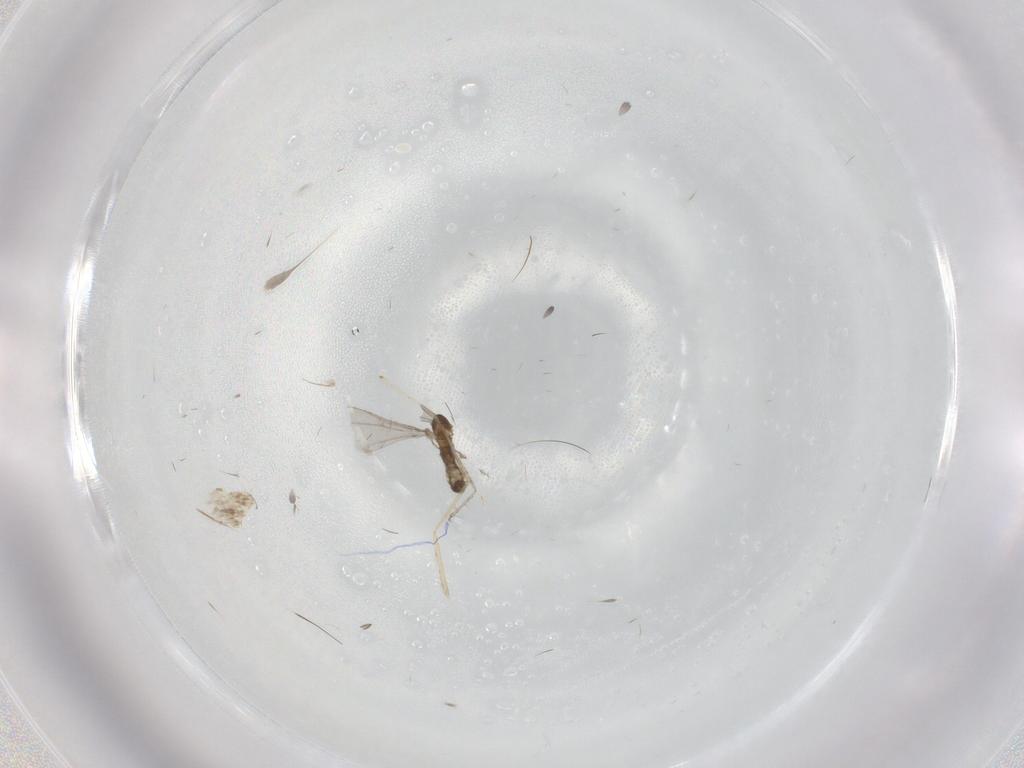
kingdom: Animalia
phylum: Arthropoda
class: Insecta
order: Diptera
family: Cecidomyiidae
